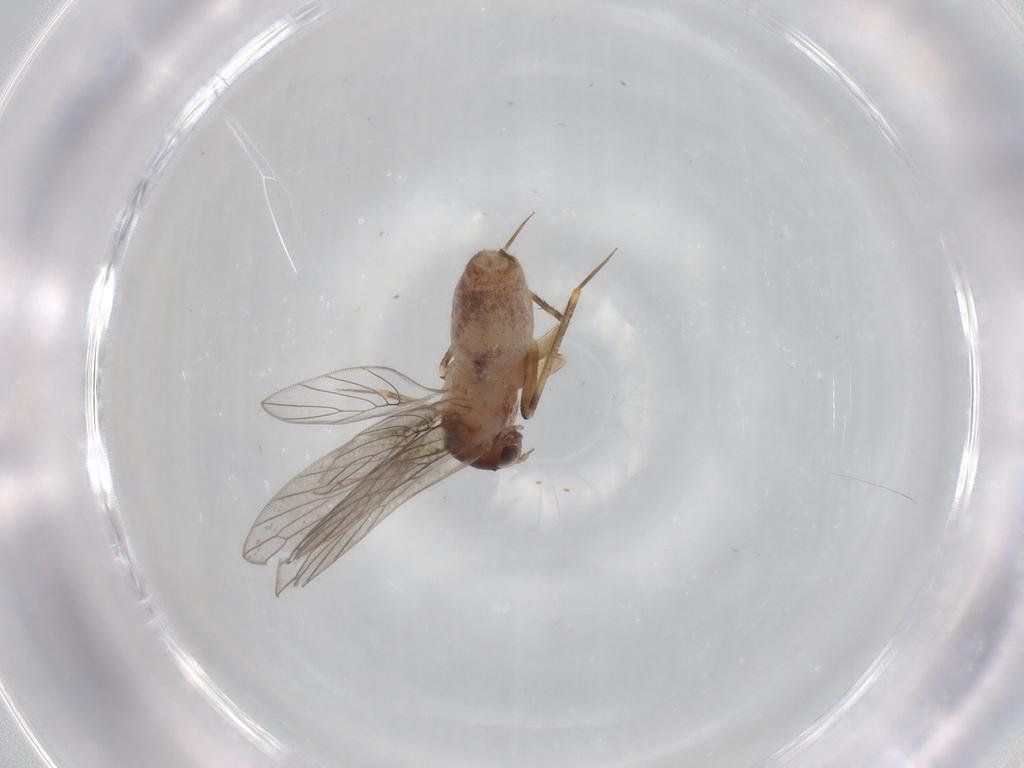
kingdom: Animalia
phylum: Arthropoda
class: Insecta
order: Psocodea
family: Lepidopsocidae
